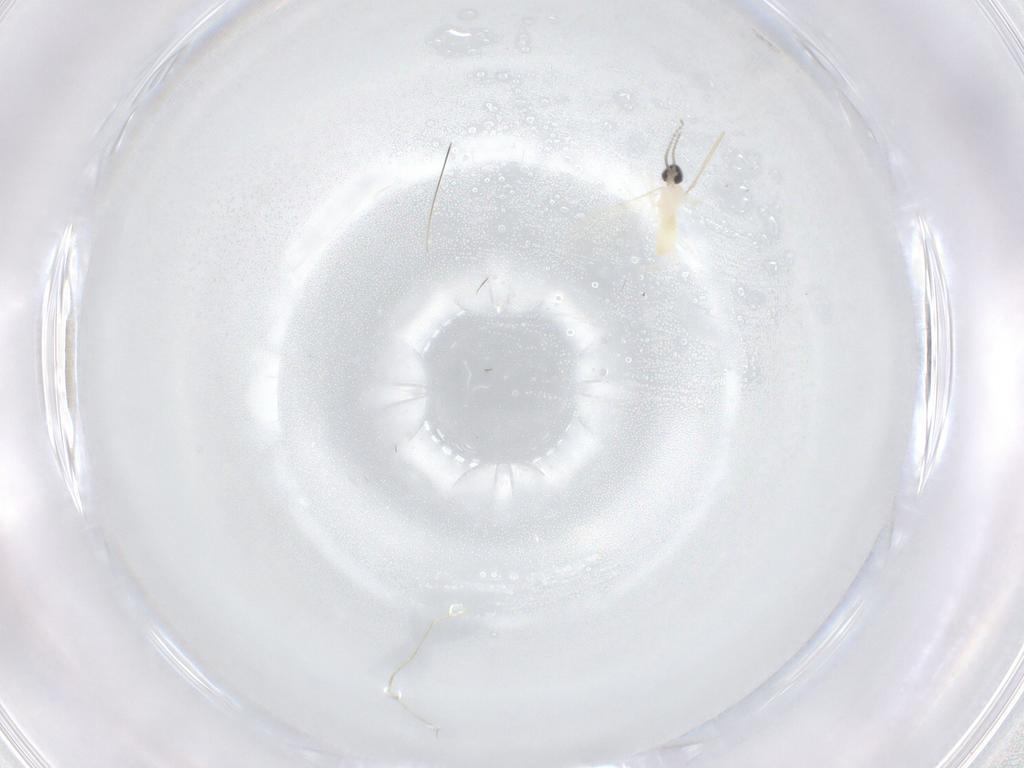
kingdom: Animalia
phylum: Arthropoda
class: Insecta
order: Diptera
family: Cecidomyiidae
